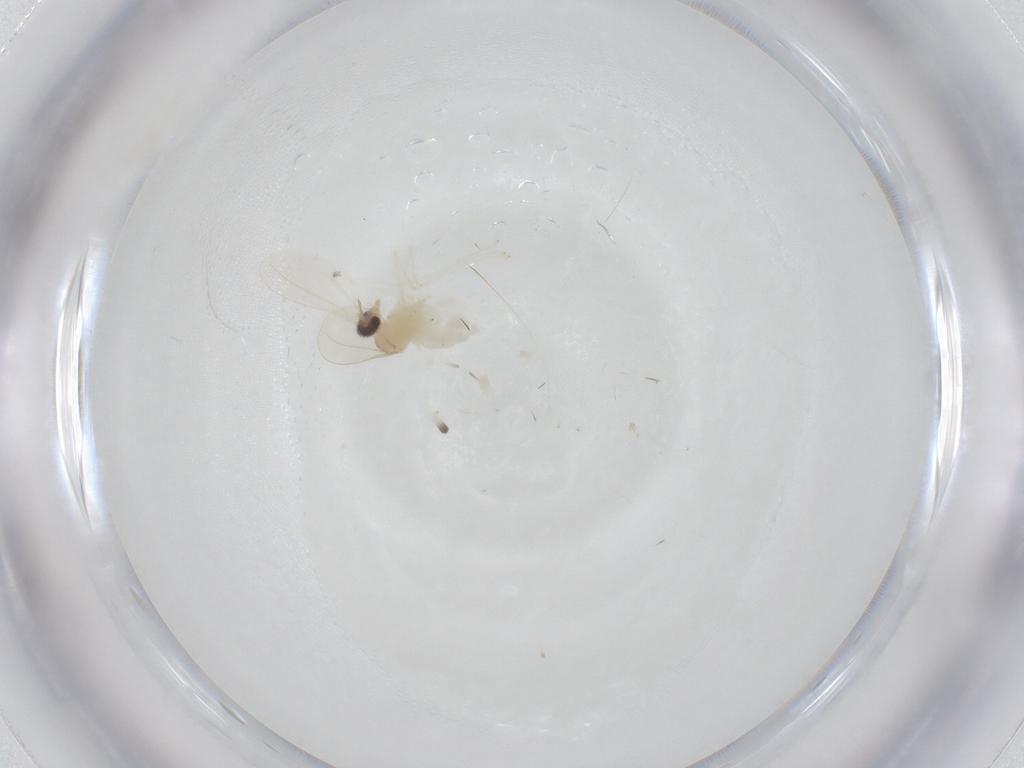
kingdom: Animalia
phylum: Arthropoda
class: Insecta
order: Diptera
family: Cecidomyiidae
